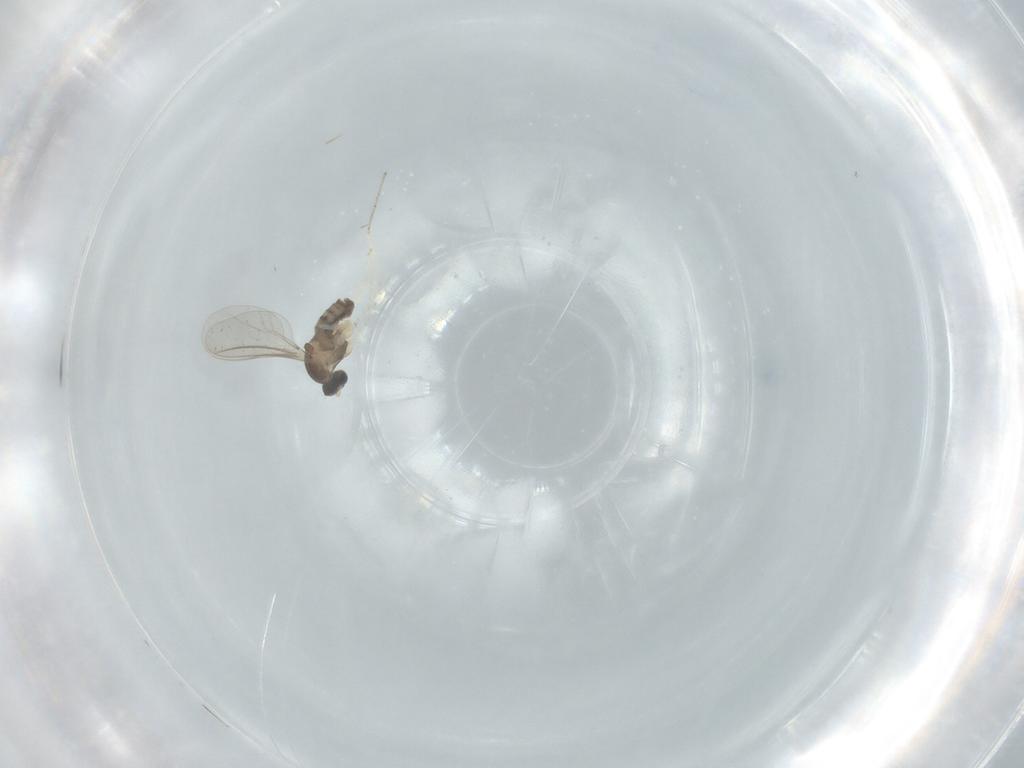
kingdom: Animalia
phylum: Arthropoda
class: Insecta
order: Diptera
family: Cecidomyiidae
